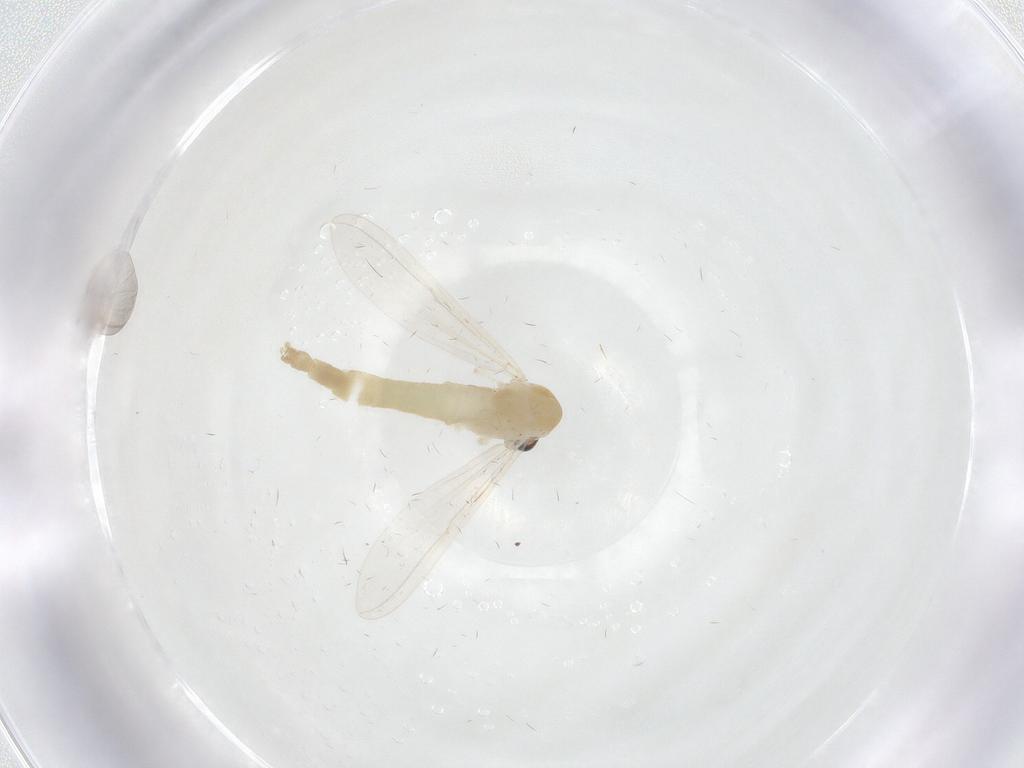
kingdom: Animalia
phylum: Arthropoda
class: Insecta
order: Diptera
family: Chironomidae
